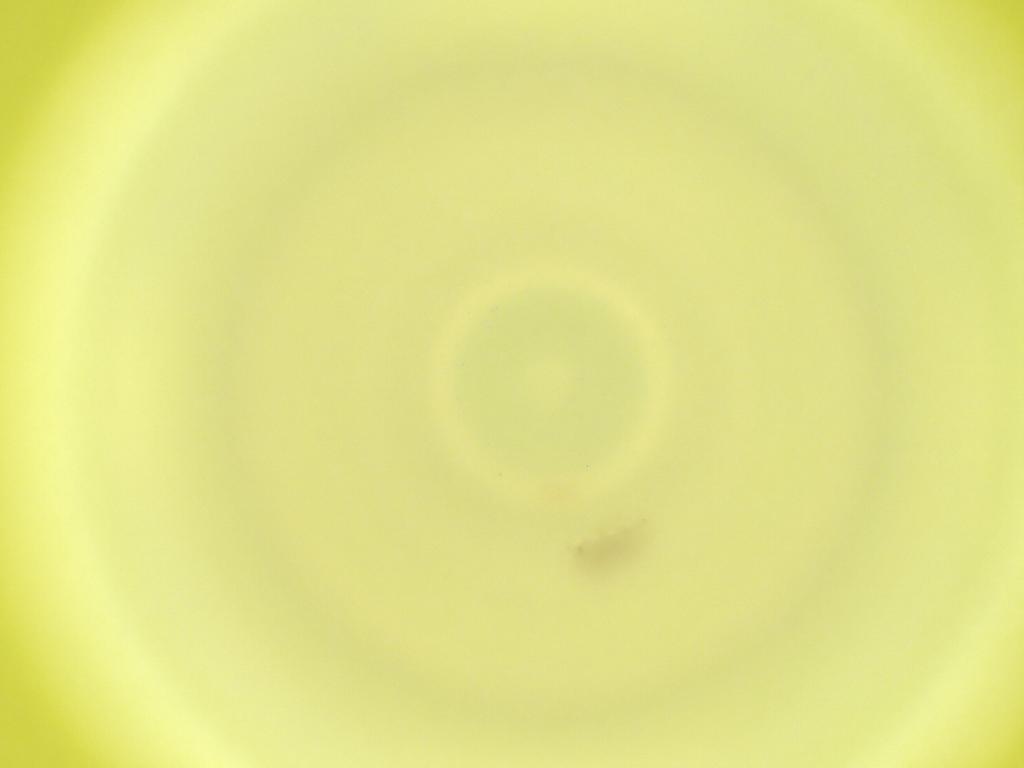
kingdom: Animalia
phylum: Arthropoda
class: Insecta
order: Diptera
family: Cecidomyiidae
